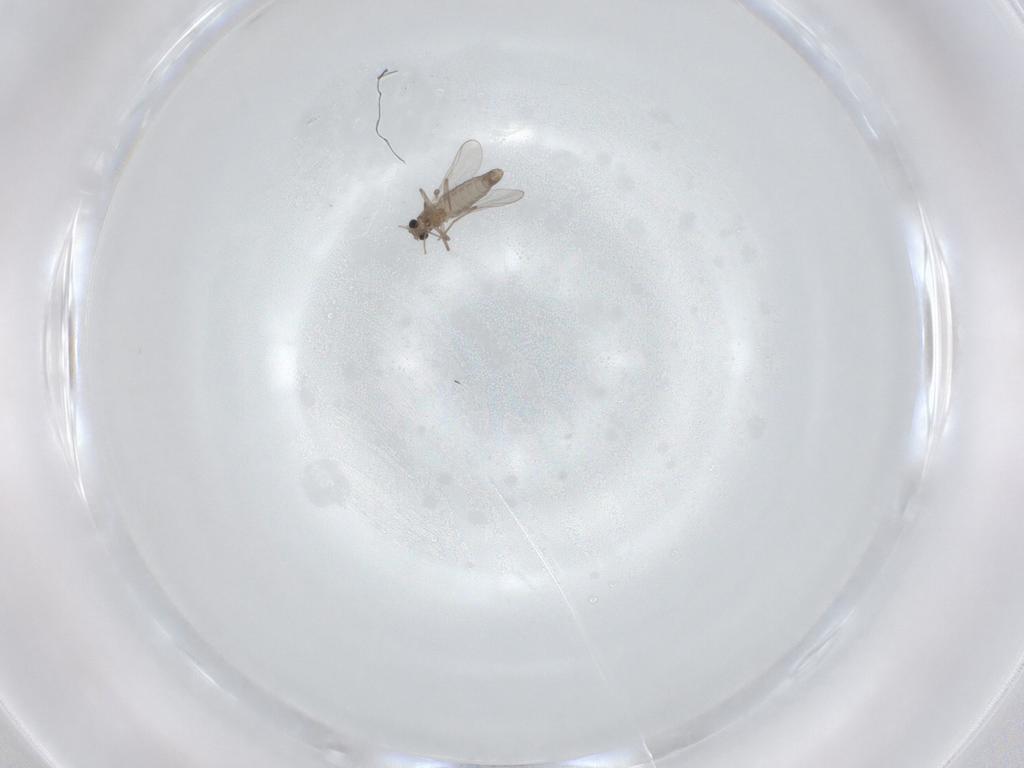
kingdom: Animalia
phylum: Arthropoda
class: Insecta
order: Diptera
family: Chironomidae
